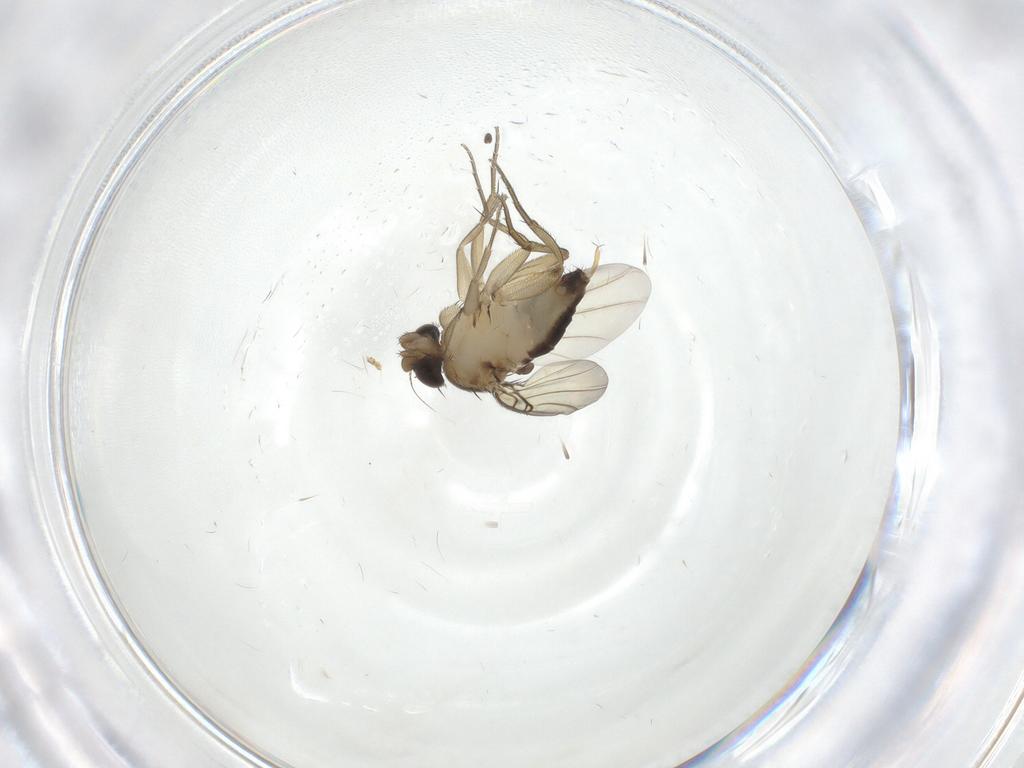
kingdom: Animalia
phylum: Arthropoda
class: Insecta
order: Diptera
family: Phoridae
